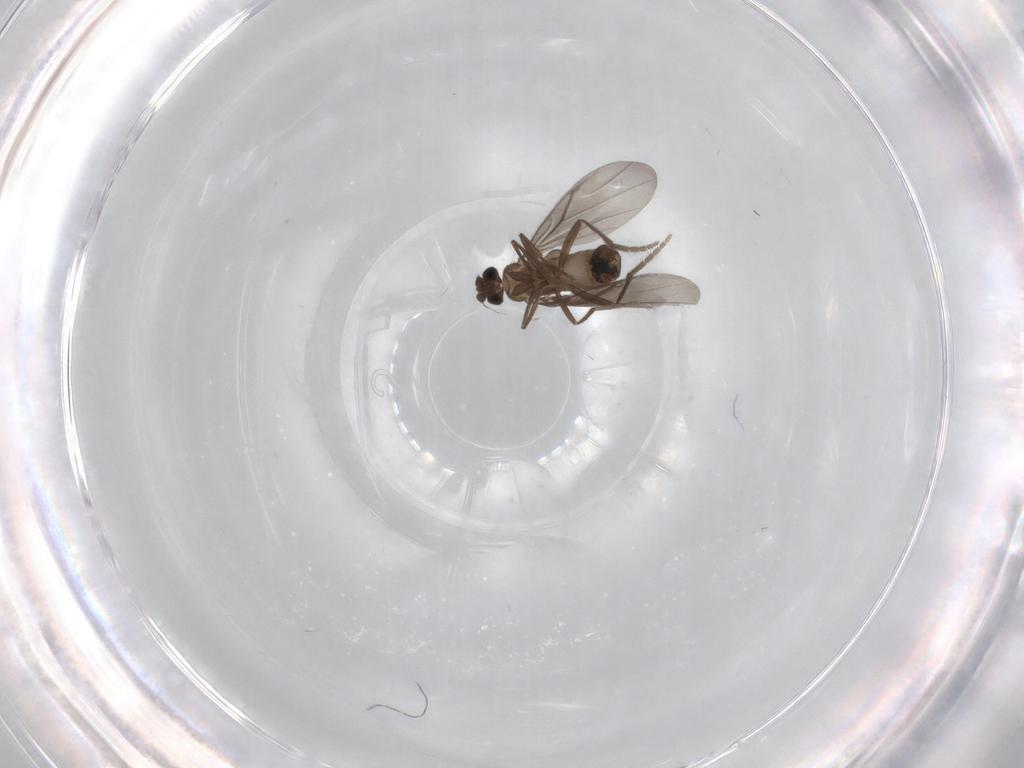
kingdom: Animalia
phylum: Arthropoda
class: Insecta
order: Diptera
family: Phoridae
